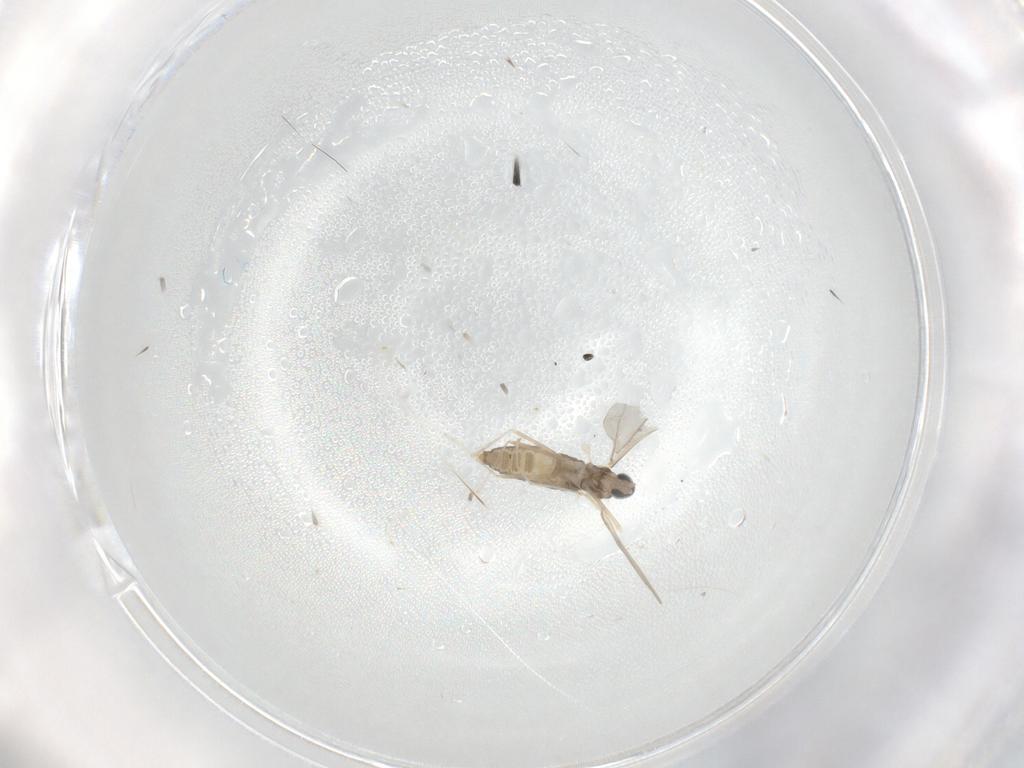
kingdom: Animalia
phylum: Arthropoda
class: Insecta
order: Diptera
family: Cecidomyiidae
